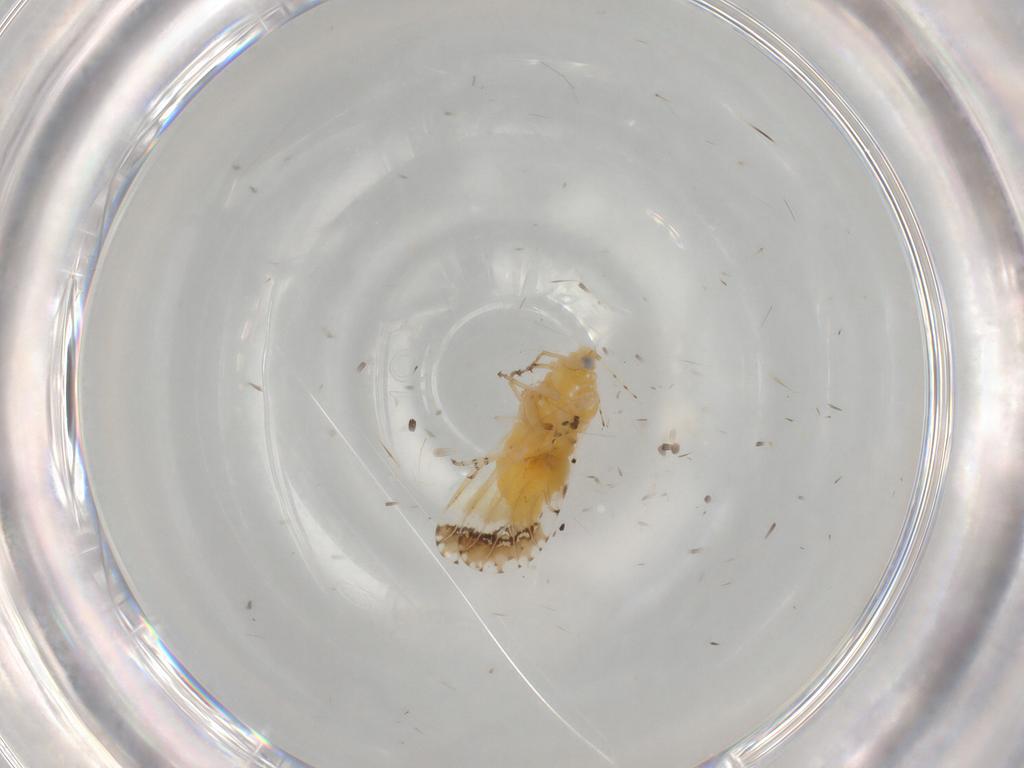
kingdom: Animalia
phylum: Arthropoda
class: Insecta
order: Hemiptera
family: Psyllidae
